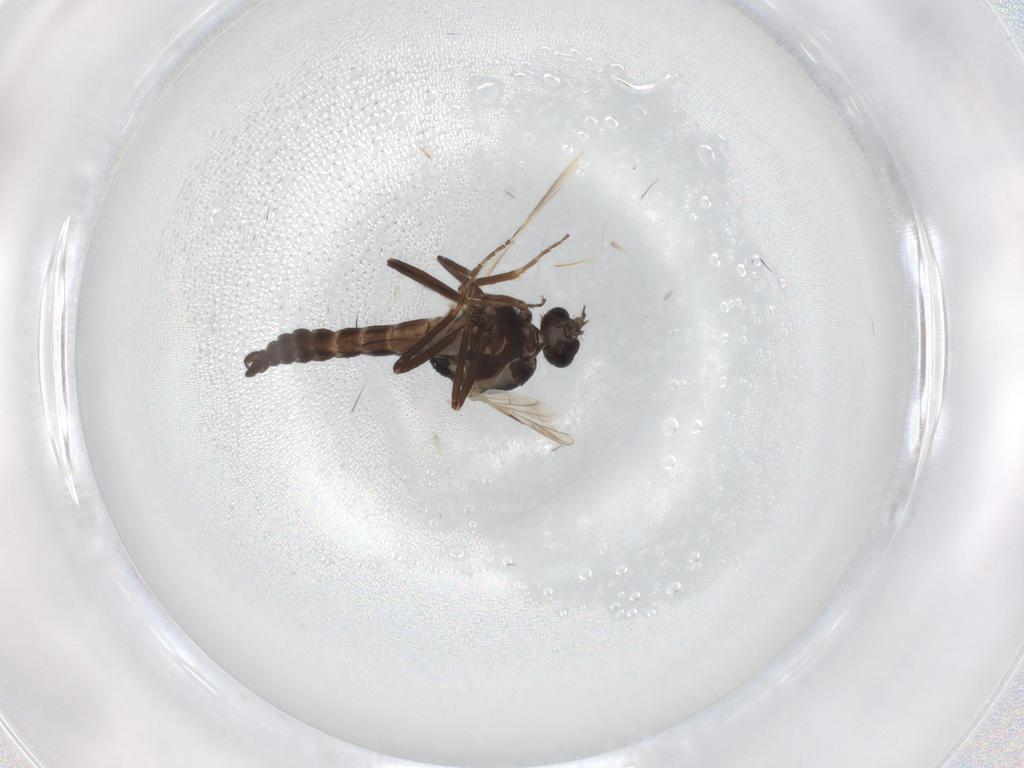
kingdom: Animalia
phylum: Arthropoda
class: Insecta
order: Diptera
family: Ceratopogonidae
